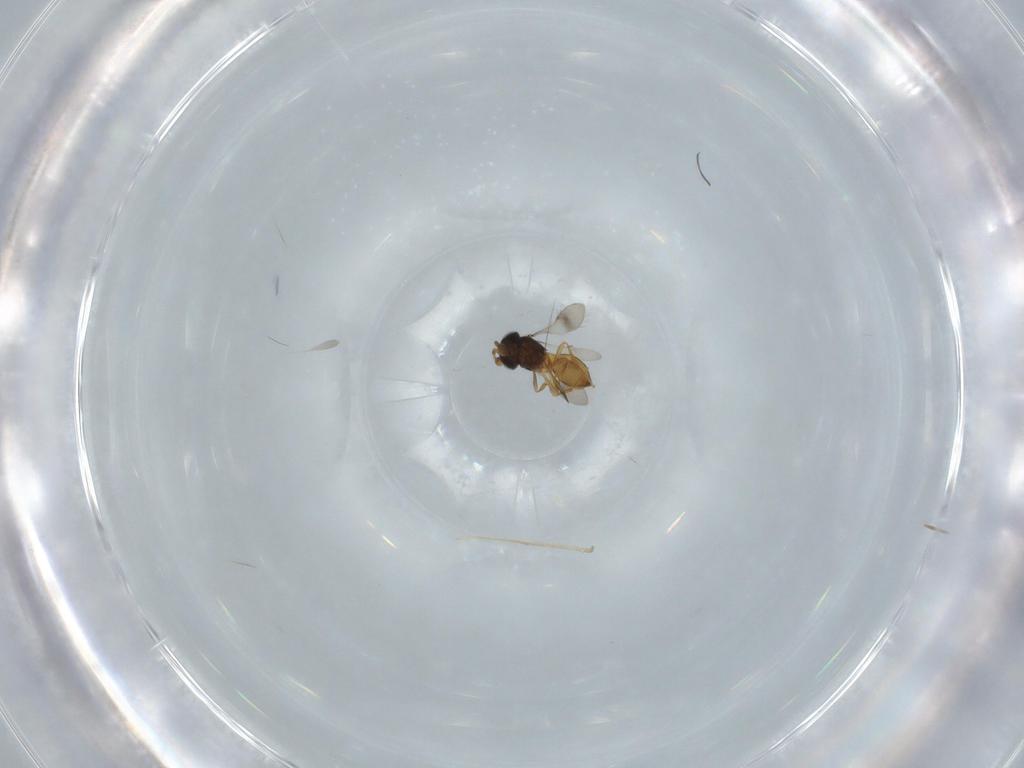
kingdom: Animalia
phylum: Arthropoda
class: Insecta
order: Hymenoptera
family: Scelionidae
